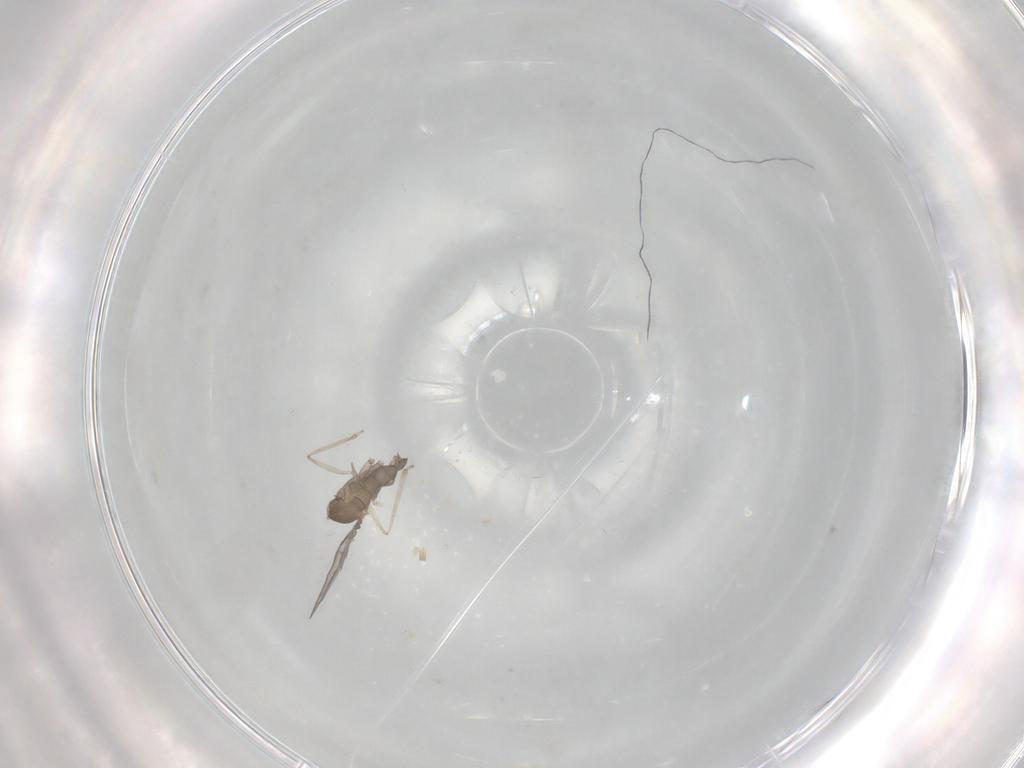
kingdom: Animalia
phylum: Arthropoda
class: Insecta
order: Diptera
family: Cecidomyiidae
